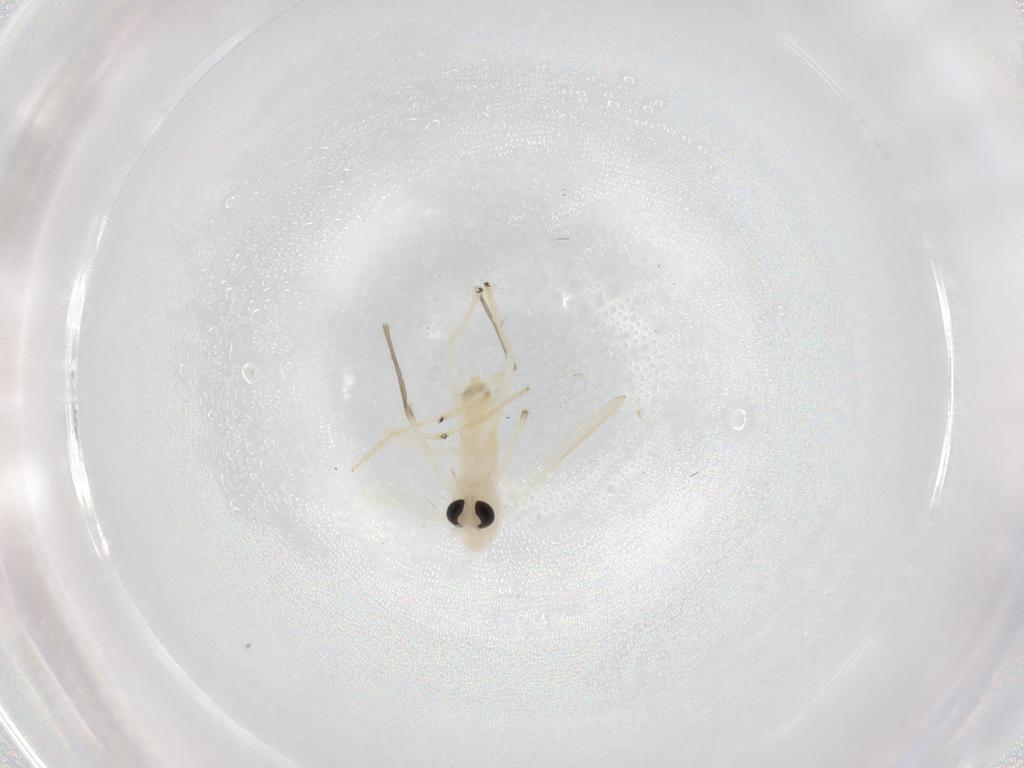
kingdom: Animalia
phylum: Arthropoda
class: Insecta
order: Diptera
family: Chironomidae
